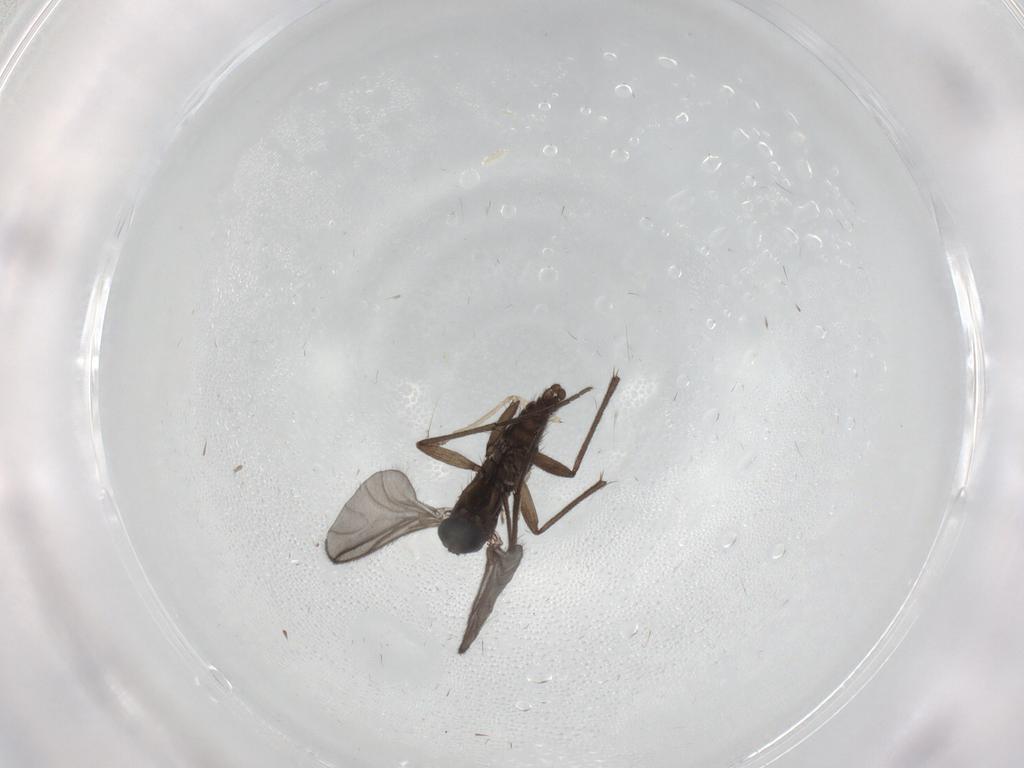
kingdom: Animalia
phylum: Arthropoda
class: Insecta
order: Diptera
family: Sciaridae
